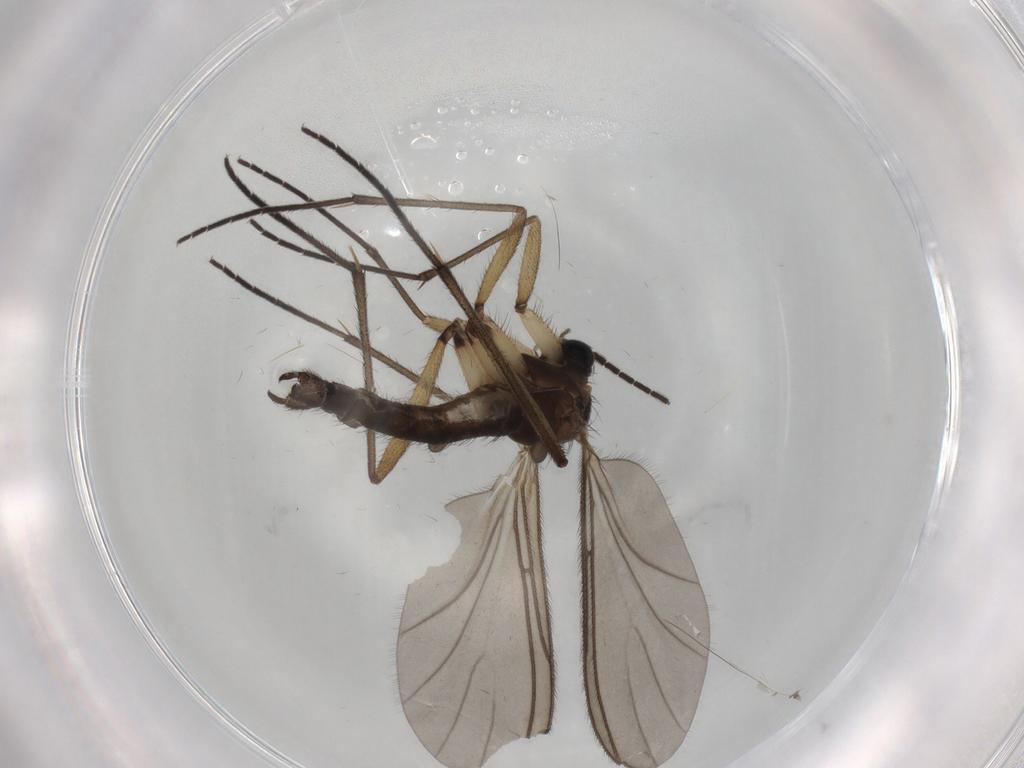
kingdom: Animalia
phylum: Arthropoda
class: Insecta
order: Diptera
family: Sciaridae
